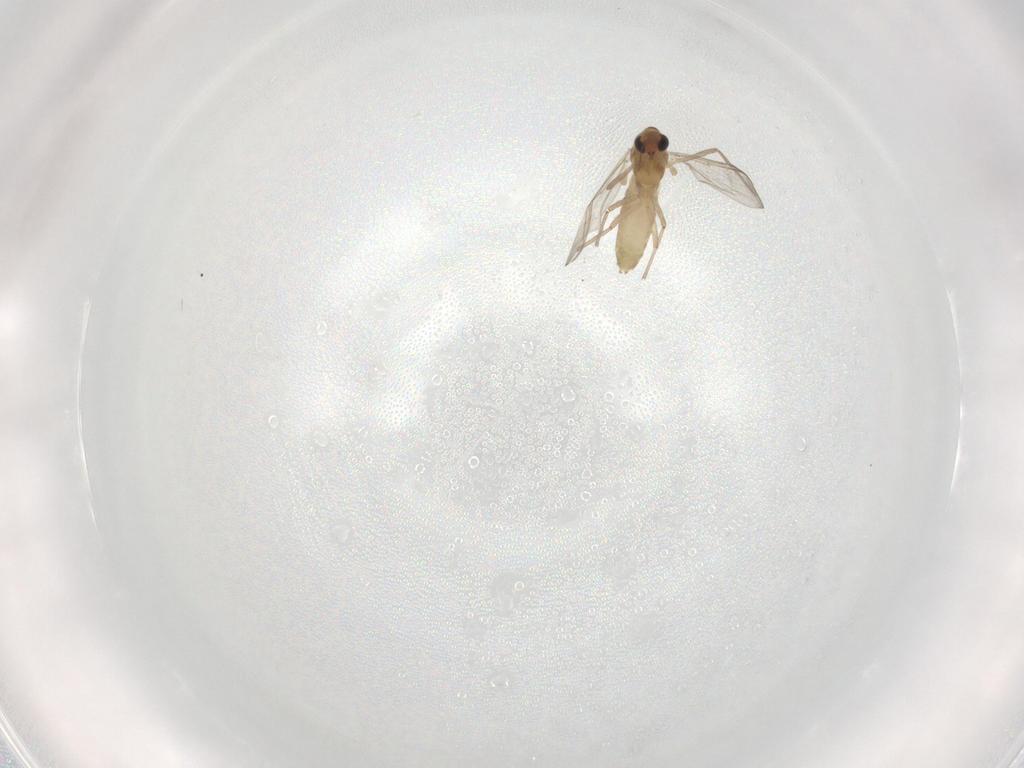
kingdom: Animalia
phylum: Arthropoda
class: Insecta
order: Diptera
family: Chironomidae
